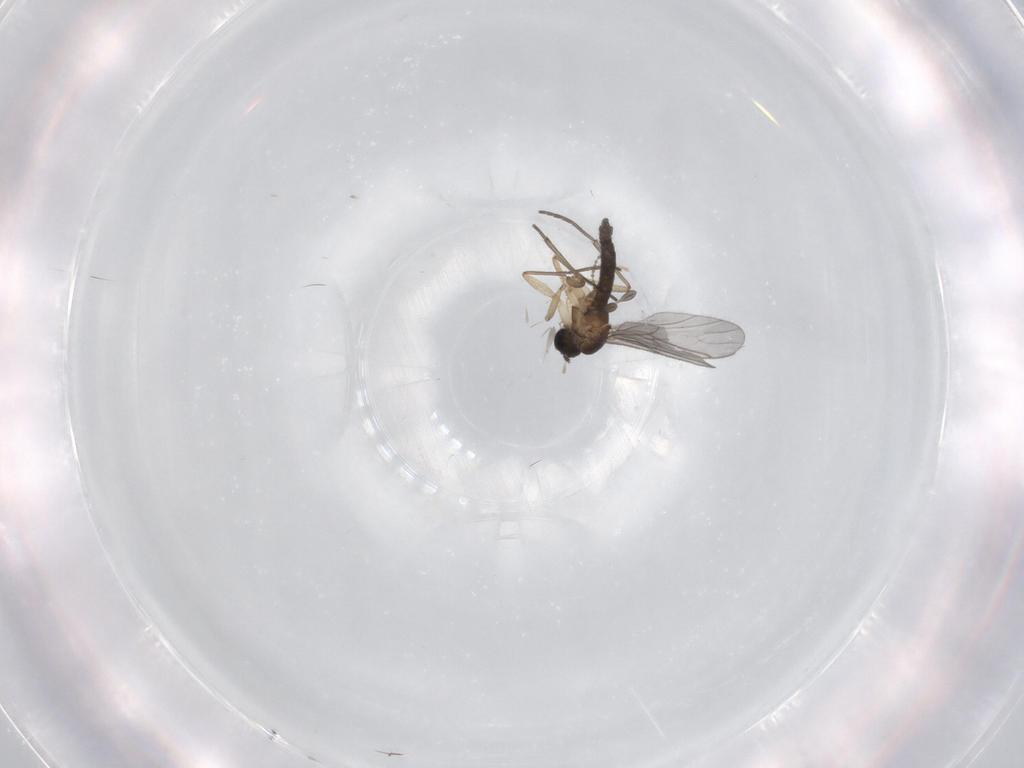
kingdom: Animalia
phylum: Arthropoda
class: Insecta
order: Diptera
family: Sciaridae
